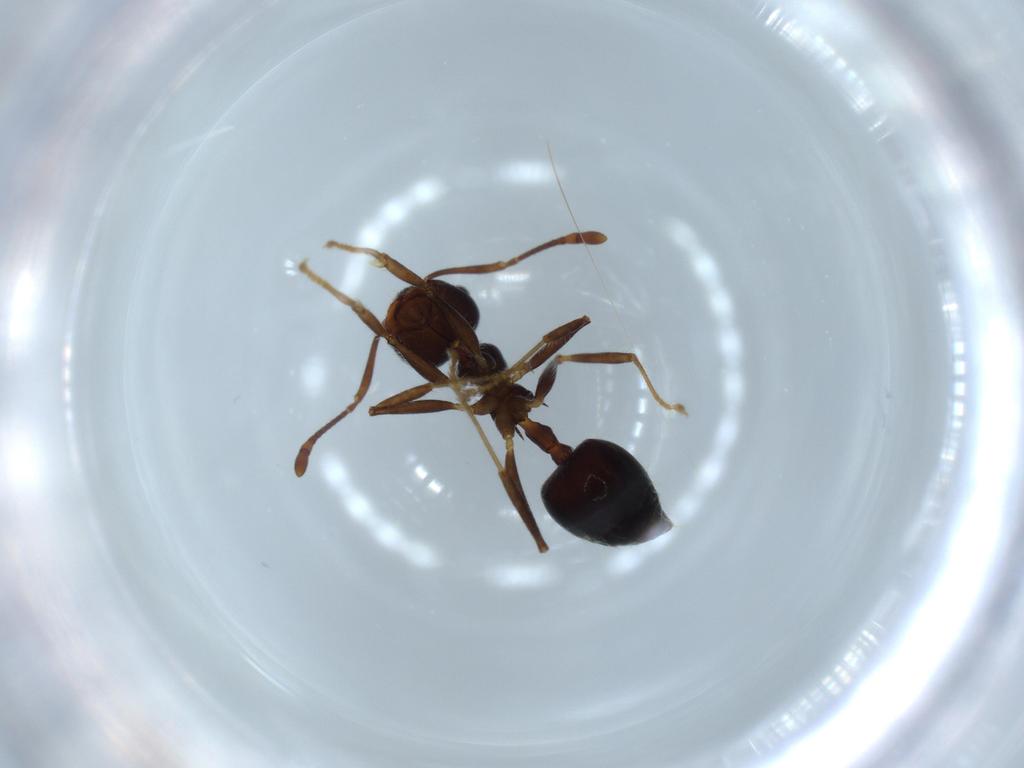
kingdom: Animalia
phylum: Arthropoda
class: Insecta
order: Hymenoptera
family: Formicidae
